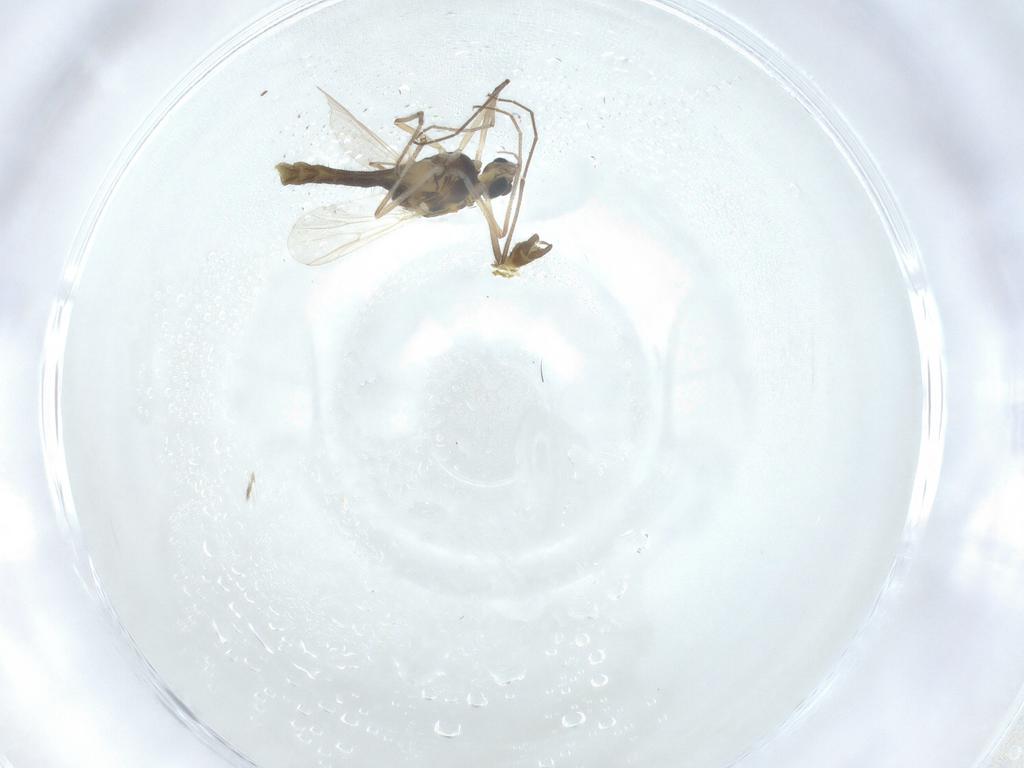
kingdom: Animalia
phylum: Arthropoda
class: Insecta
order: Diptera
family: Chironomidae
